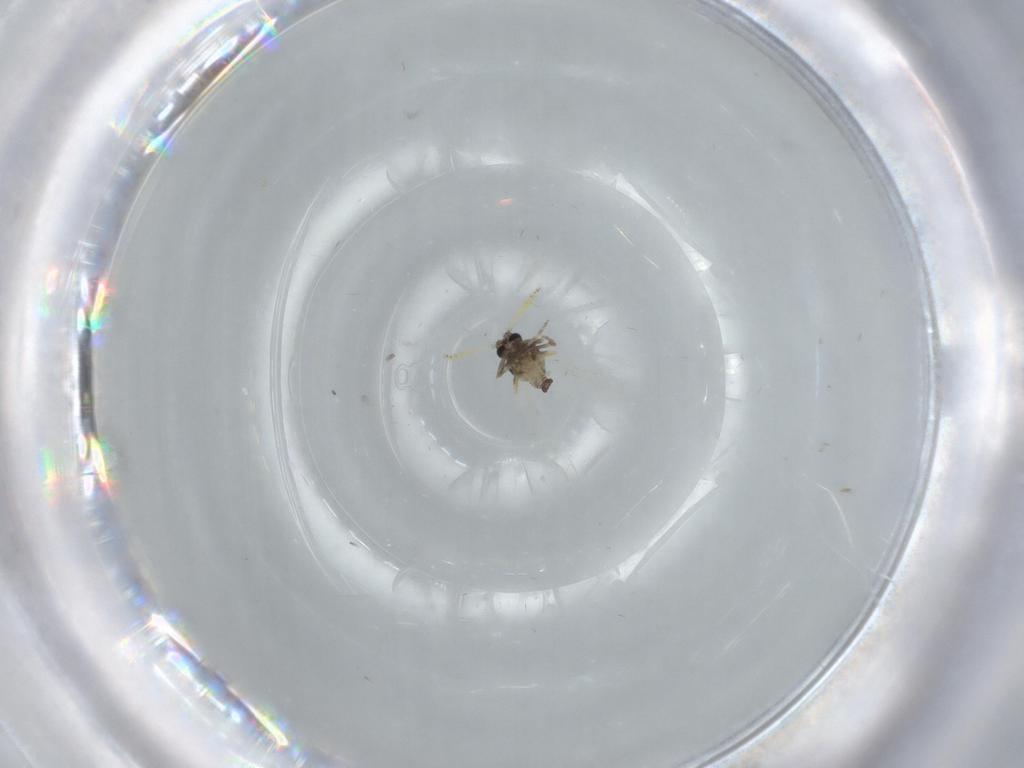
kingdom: Animalia
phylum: Arthropoda
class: Insecta
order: Diptera
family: Ceratopogonidae
